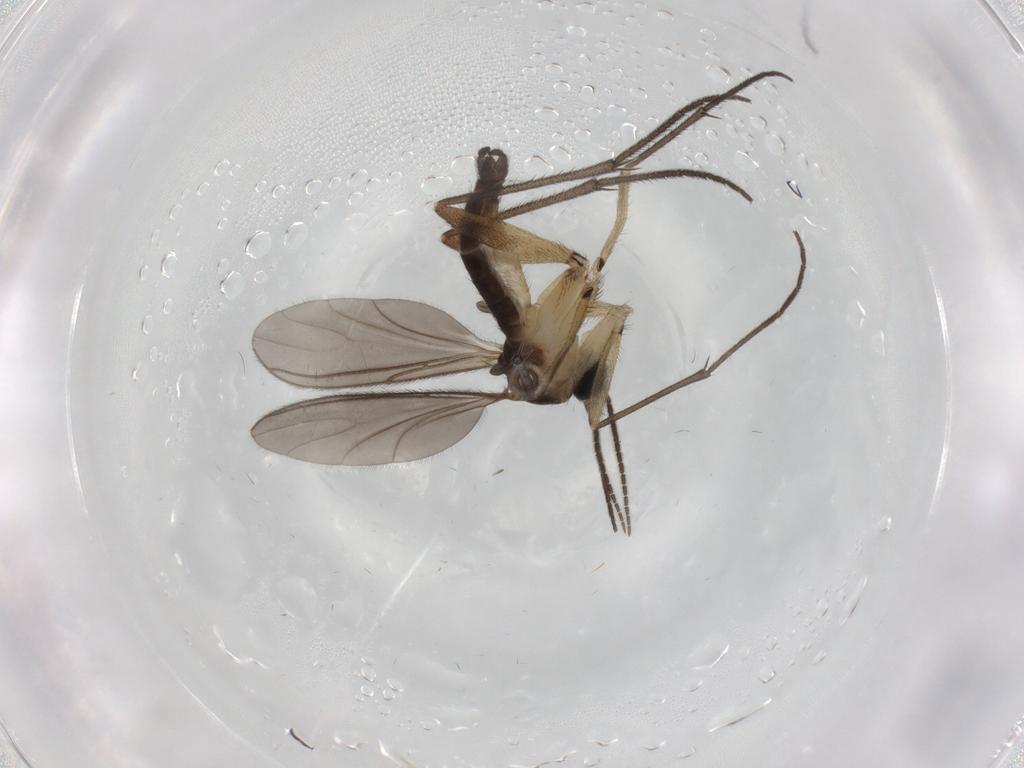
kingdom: Animalia
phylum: Arthropoda
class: Insecta
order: Diptera
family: Sciaridae
